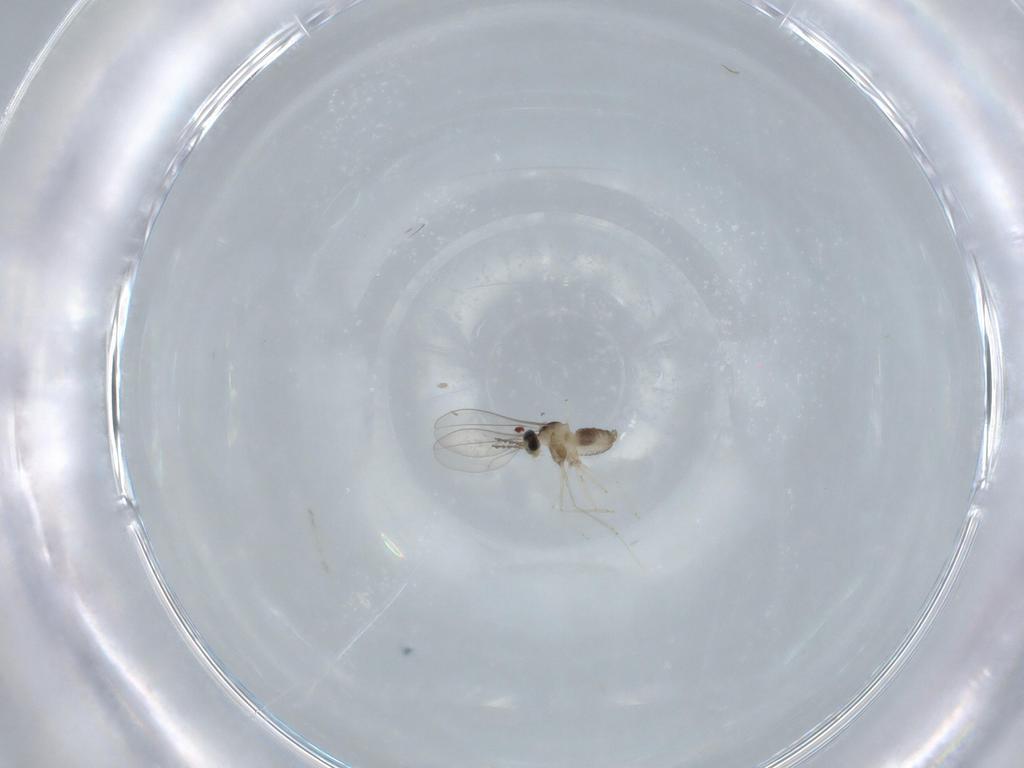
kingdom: Animalia
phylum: Arthropoda
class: Insecta
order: Diptera
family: Cecidomyiidae
